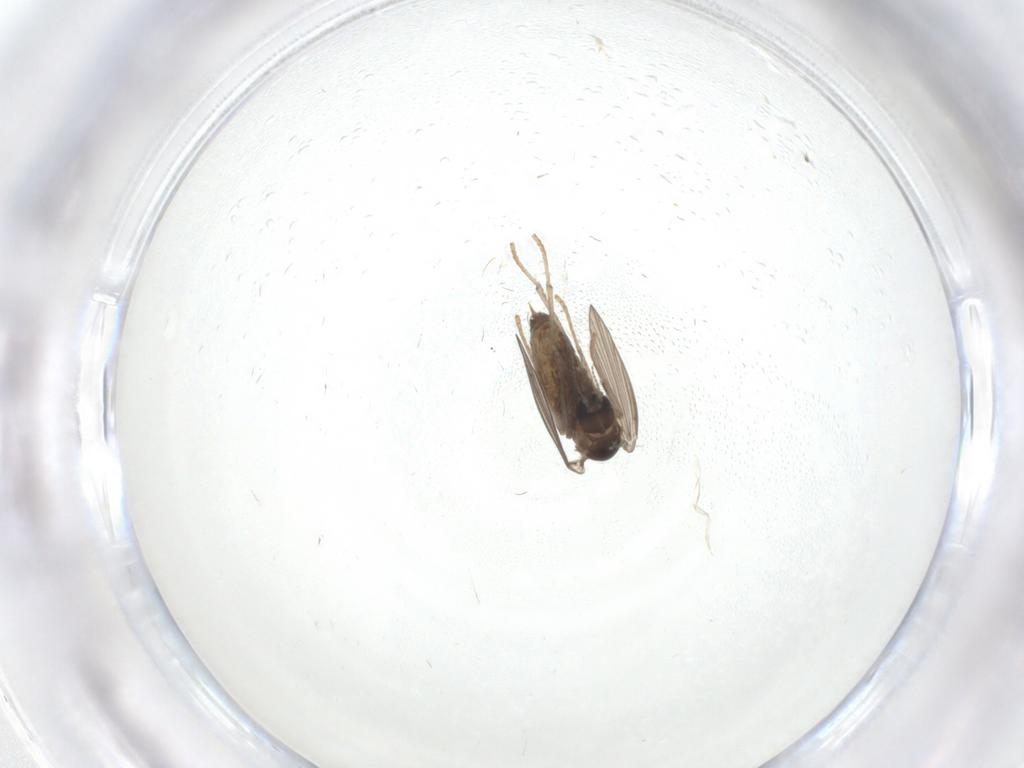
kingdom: Animalia
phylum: Arthropoda
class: Insecta
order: Diptera
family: Psychodidae
